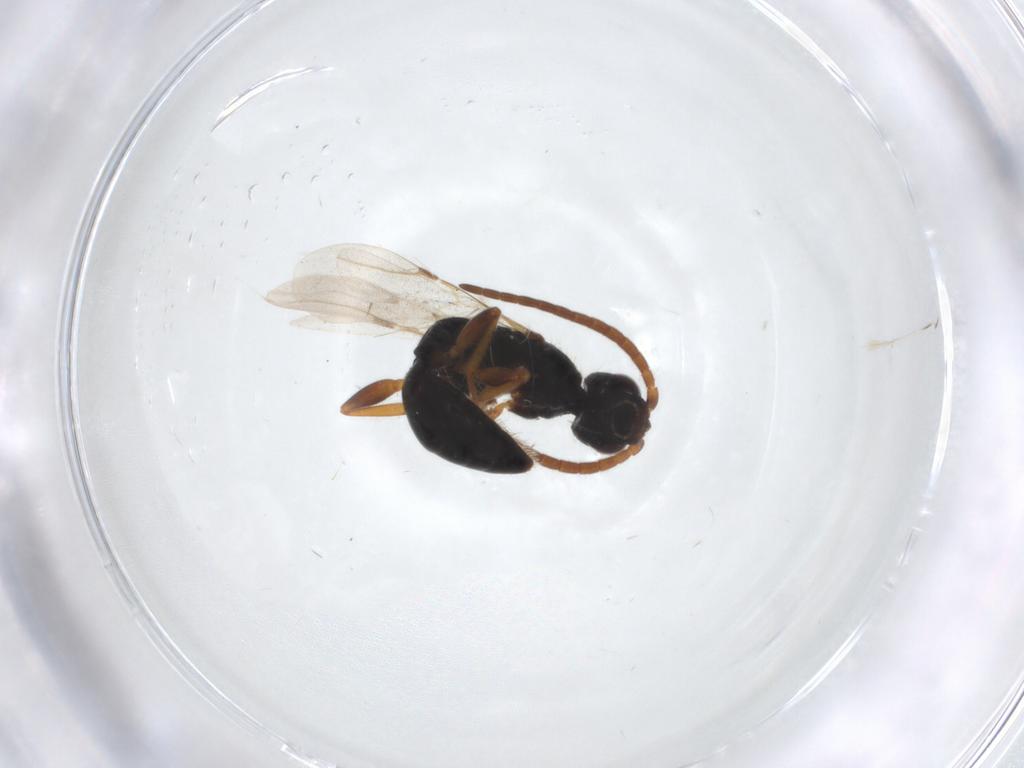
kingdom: Animalia
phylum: Arthropoda
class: Insecta
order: Hymenoptera
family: Bethylidae
